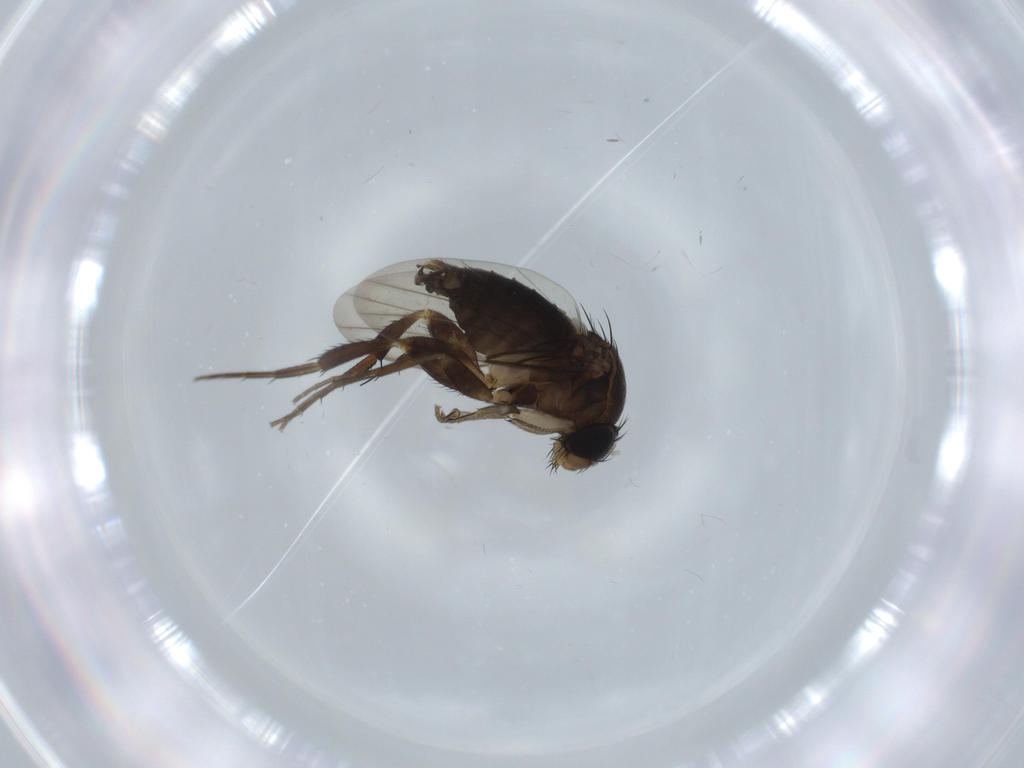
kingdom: Animalia
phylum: Arthropoda
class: Insecta
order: Diptera
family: Phoridae
